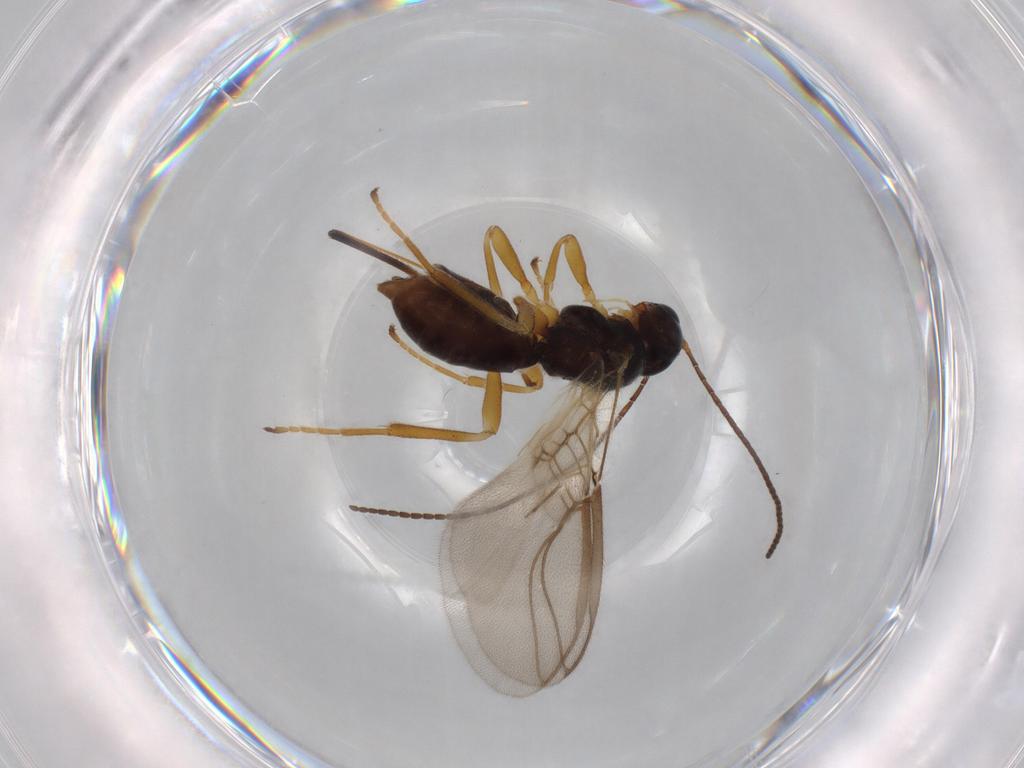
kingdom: Animalia
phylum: Arthropoda
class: Insecta
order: Hymenoptera
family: Braconidae
